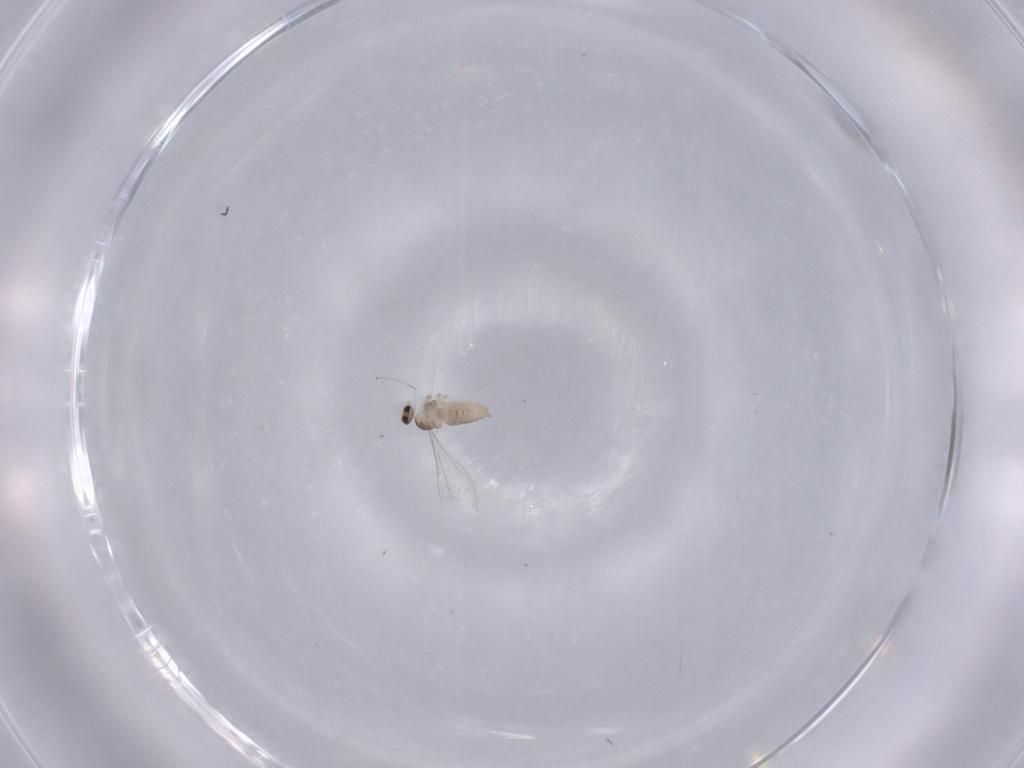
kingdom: Animalia
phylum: Arthropoda
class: Insecta
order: Diptera
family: Cecidomyiidae
